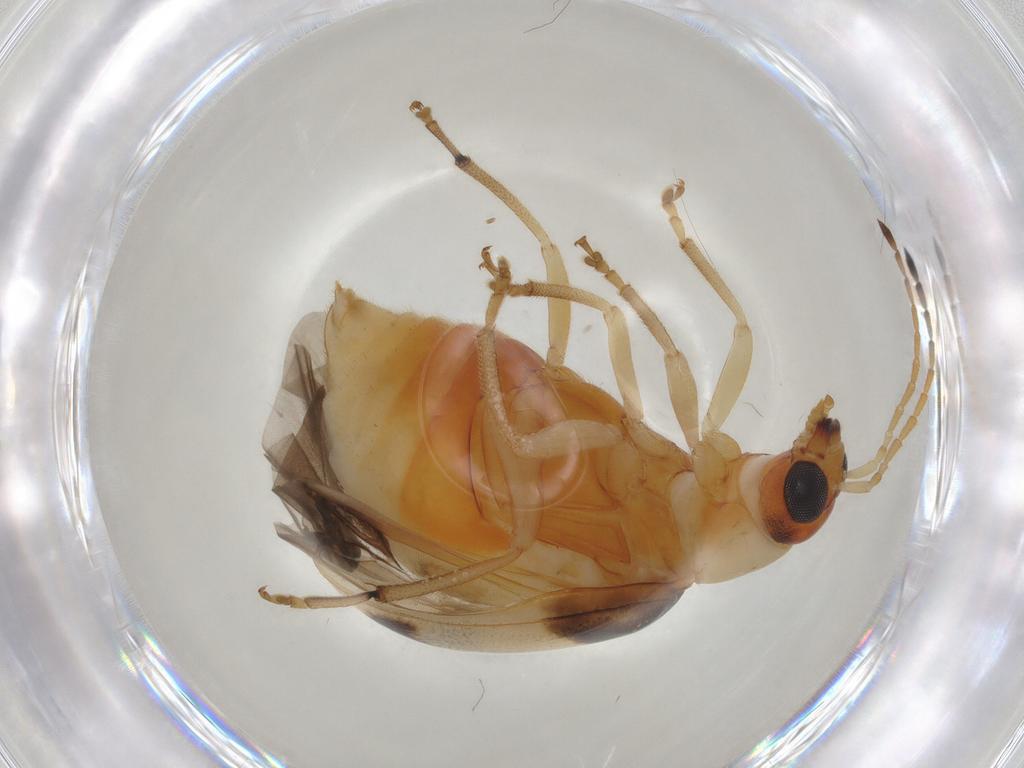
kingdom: Animalia
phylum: Arthropoda
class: Insecta
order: Coleoptera
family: Chrysomelidae
